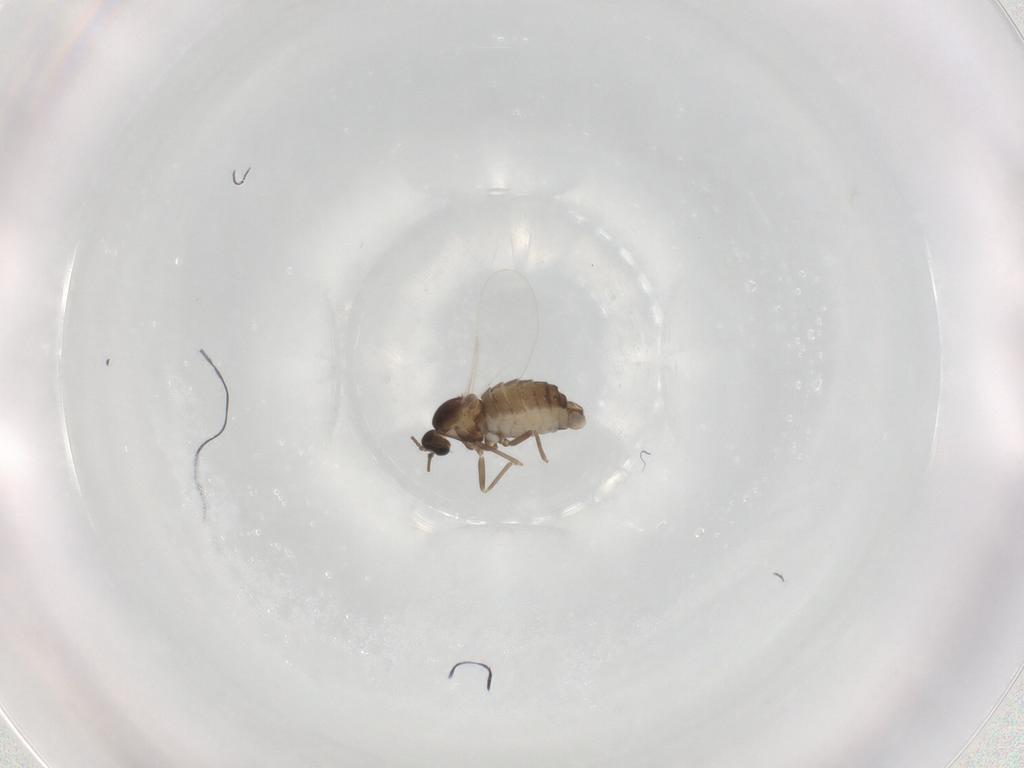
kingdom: Animalia
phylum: Arthropoda
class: Insecta
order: Diptera
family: Cecidomyiidae
